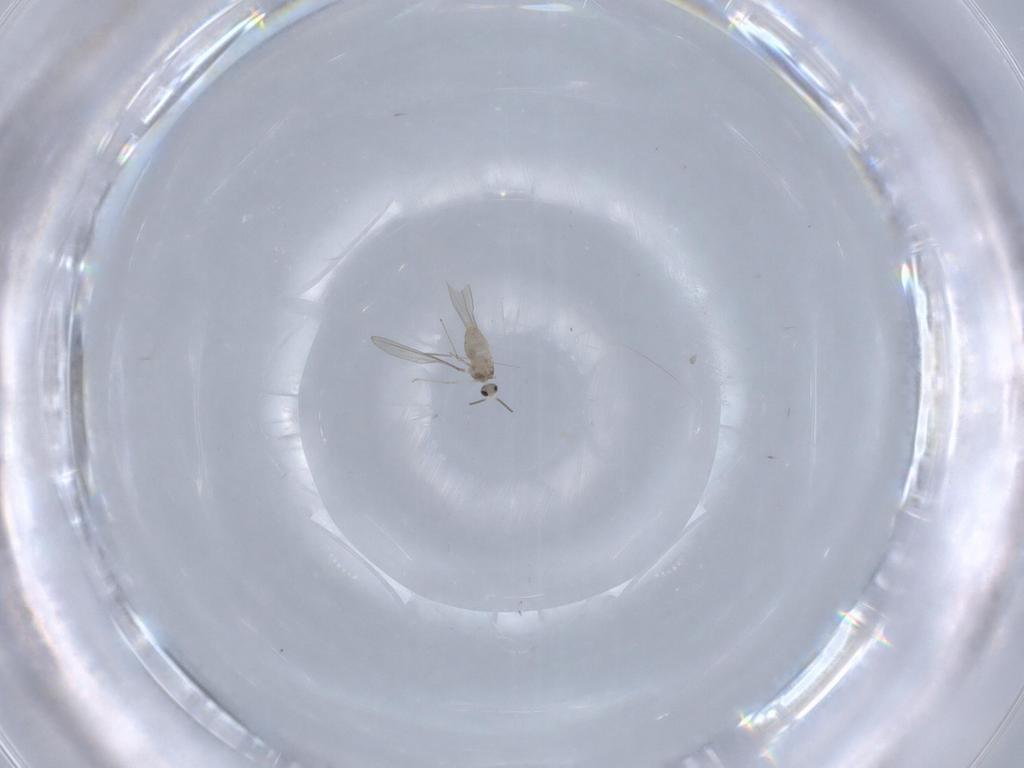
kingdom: Animalia
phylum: Arthropoda
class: Insecta
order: Diptera
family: Cecidomyiidae
